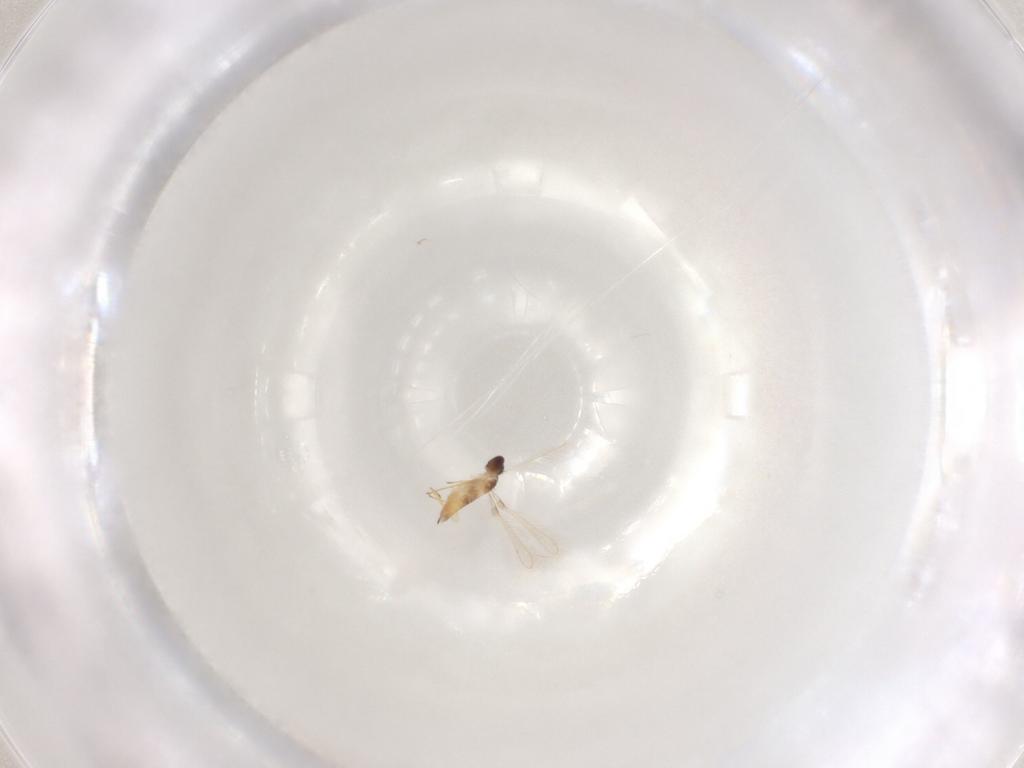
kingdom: Animalia
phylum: Arthropoda
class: Insecta
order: Hymenoptera
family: Mymaridae
